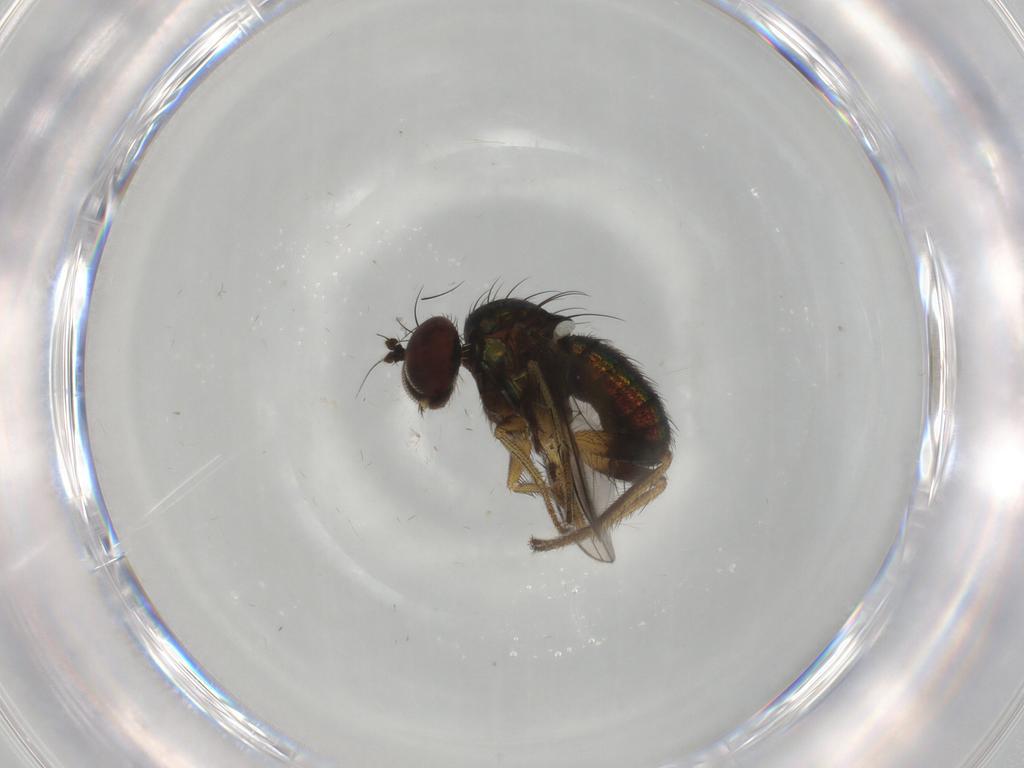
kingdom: Animalia
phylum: Arthropoda
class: Insecta
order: Diptera
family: Dolichopodidae
